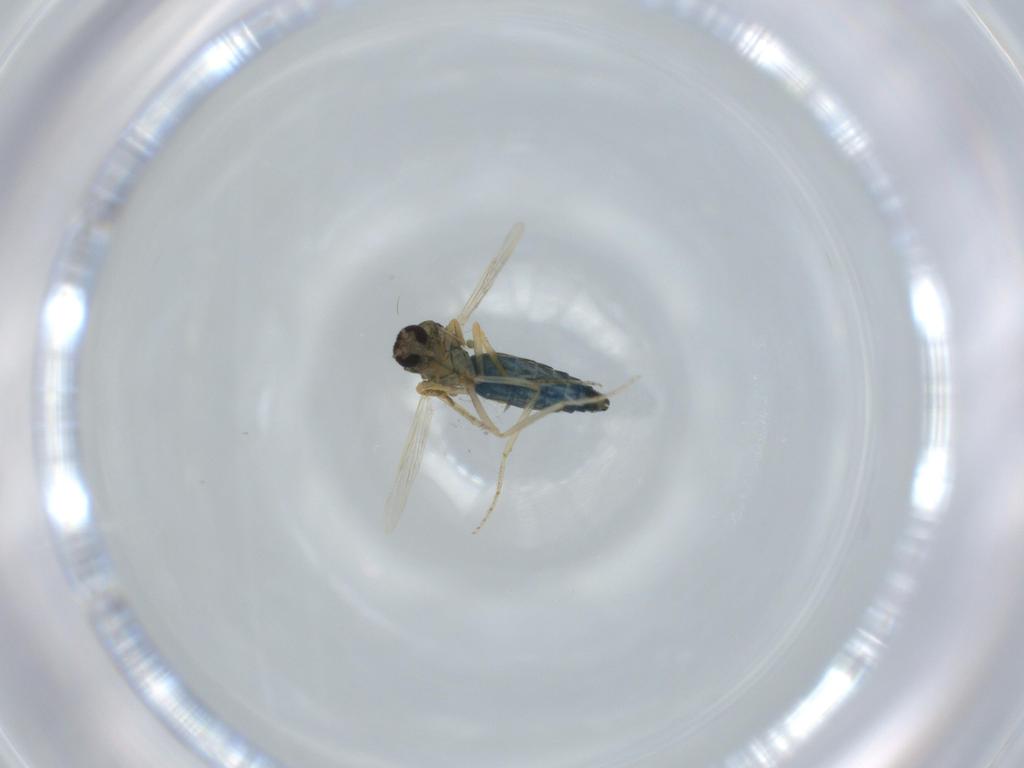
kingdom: Animalia
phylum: Arthropoda
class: Insecta
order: Diptera
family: Ceratopogonidae
